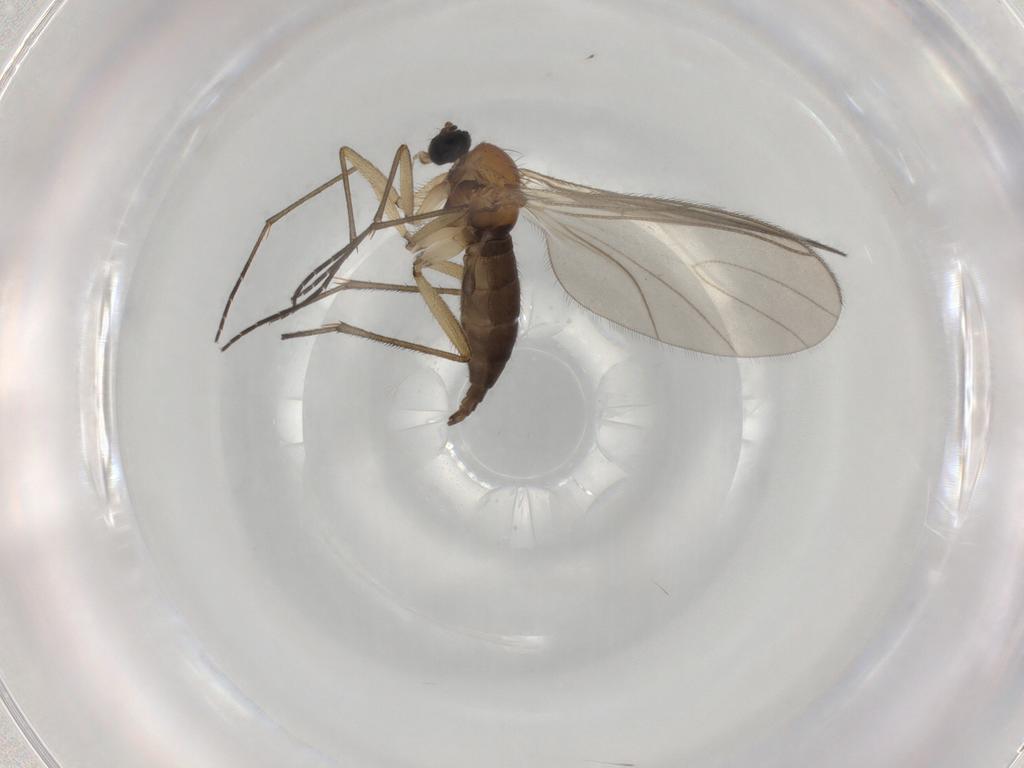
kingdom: Animalia
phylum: Arthropoda
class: Insecta
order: Diptera
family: Sciaridae
